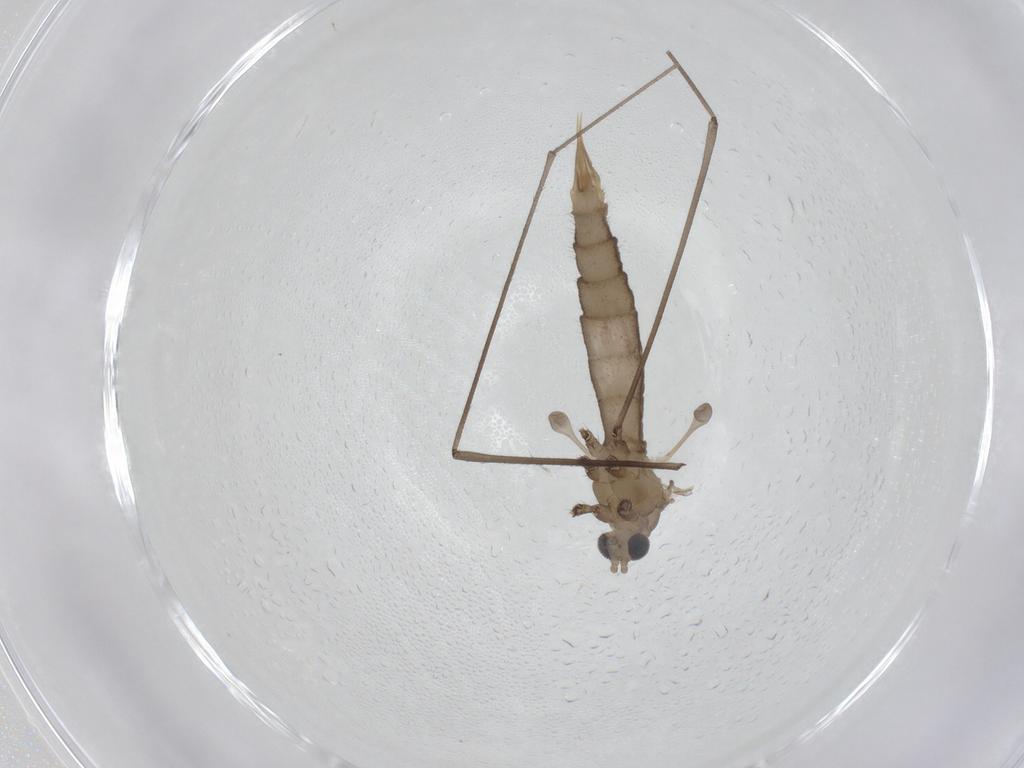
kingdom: Animalia
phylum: Arthropoda
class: Insecta
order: Diptera
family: Limoniidae
